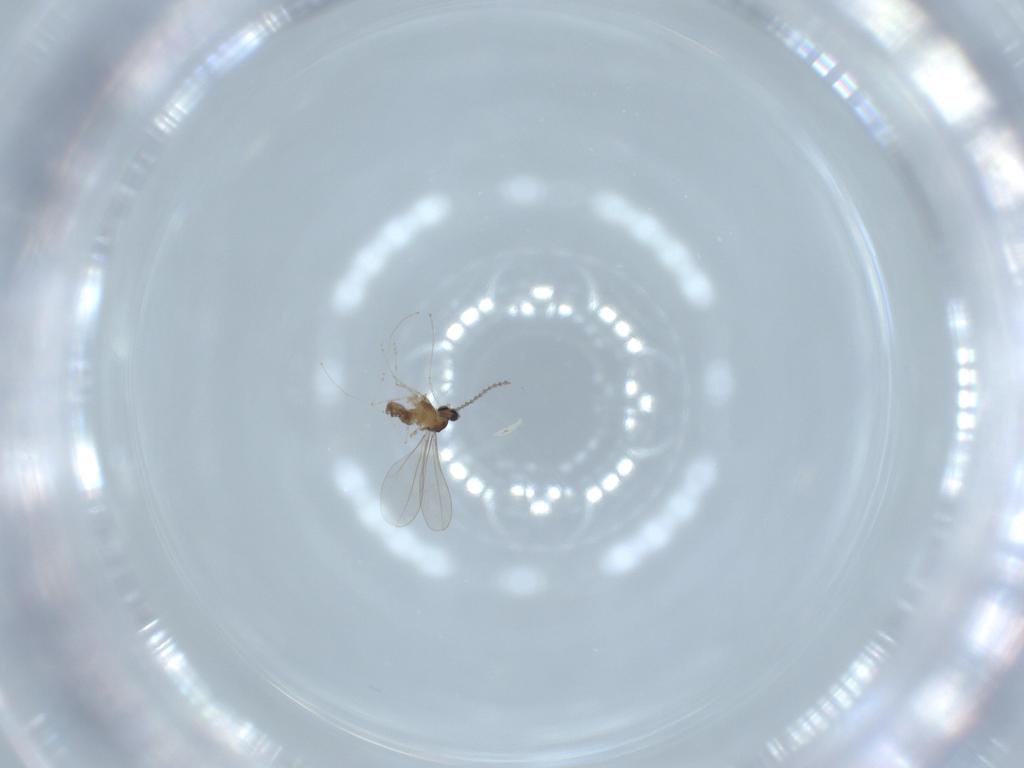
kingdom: Animalia
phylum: Arthropoda
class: Insecta
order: Diptera
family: Cecidomyiidae
